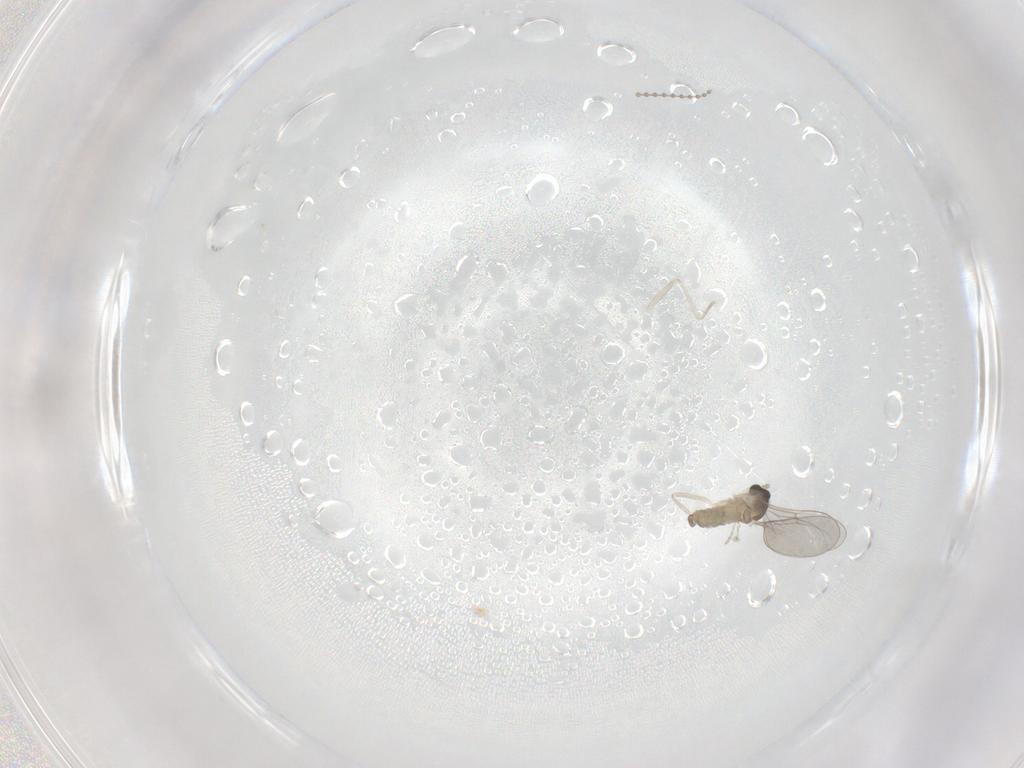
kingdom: Animalia
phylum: Arthropoda
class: Insecta
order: Diptera
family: Cecidomyiidae
